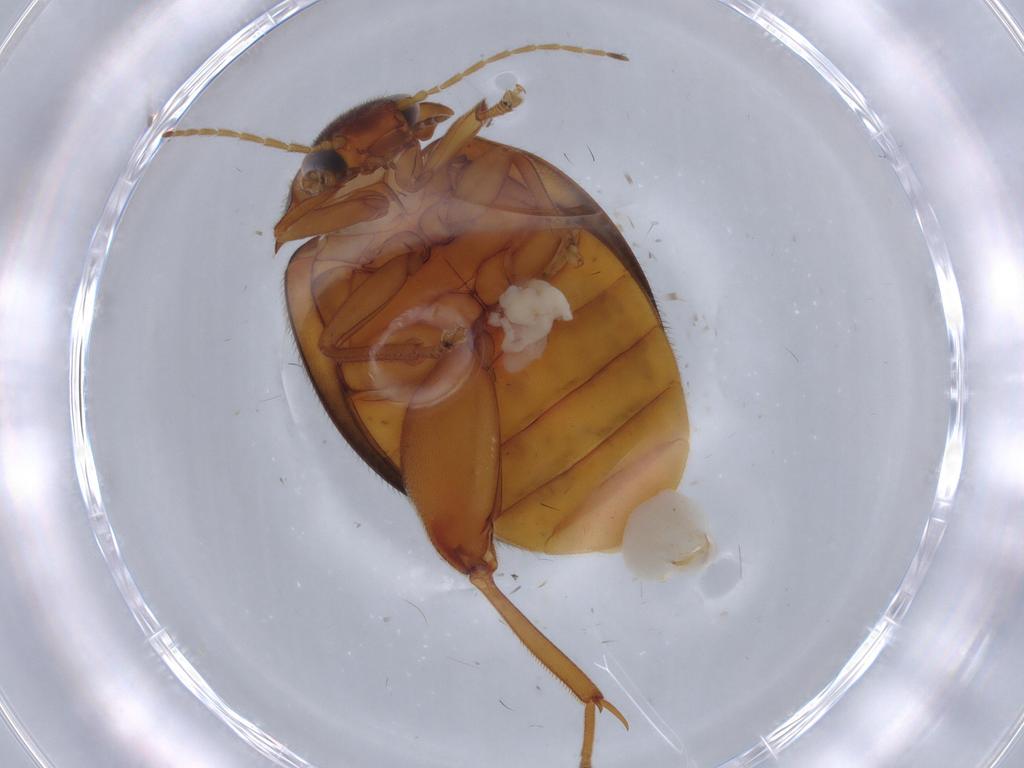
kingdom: Animalia
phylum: Arthropoda
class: Insecta
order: Coleoptera
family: Scirtidae
